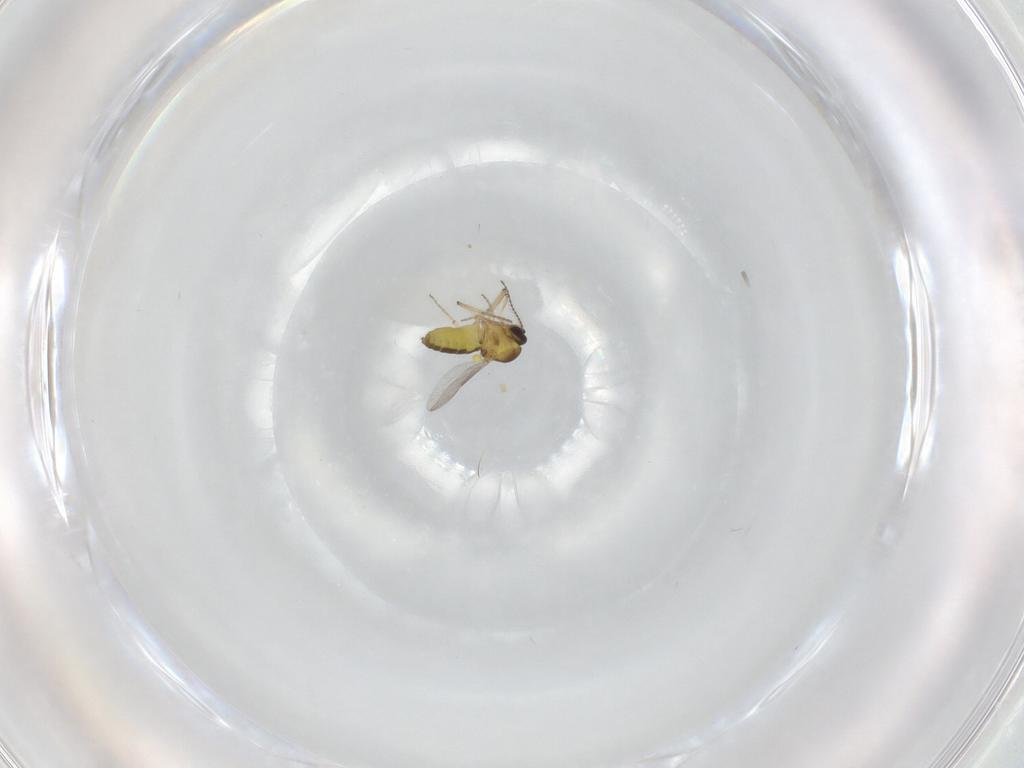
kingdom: Animalia
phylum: Arthropoda
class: Insecta
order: Diptera
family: Ceratopogonidae
